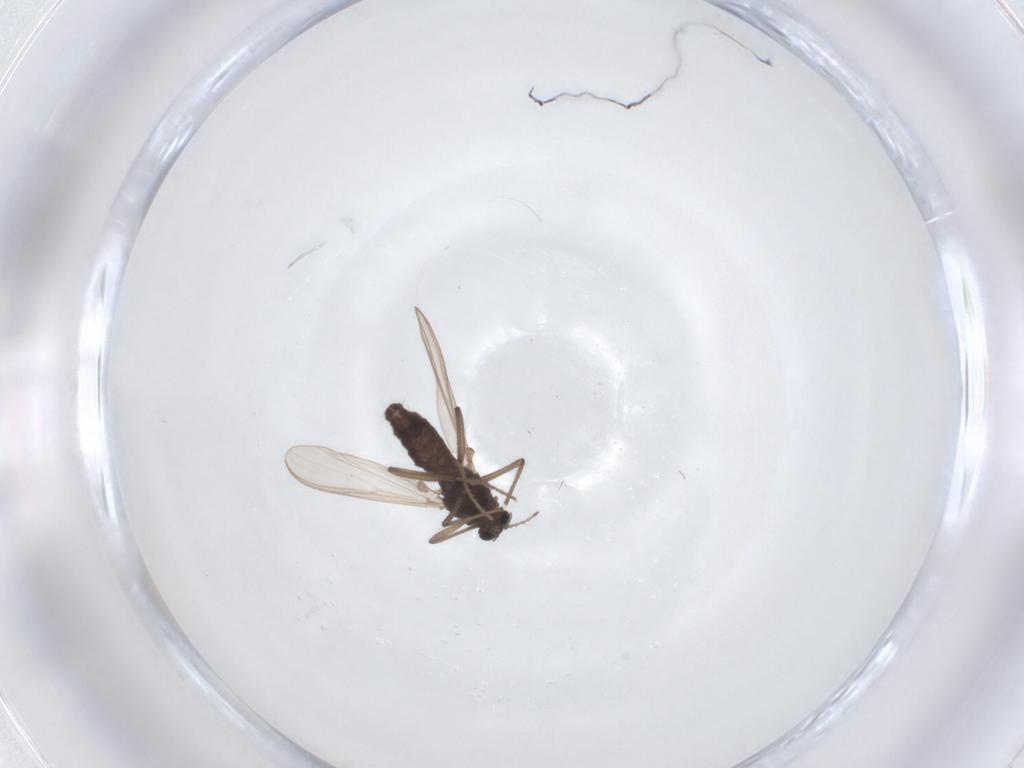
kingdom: Animalia
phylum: Arthropoda
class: Insecta
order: Diptera
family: Chironomidae
